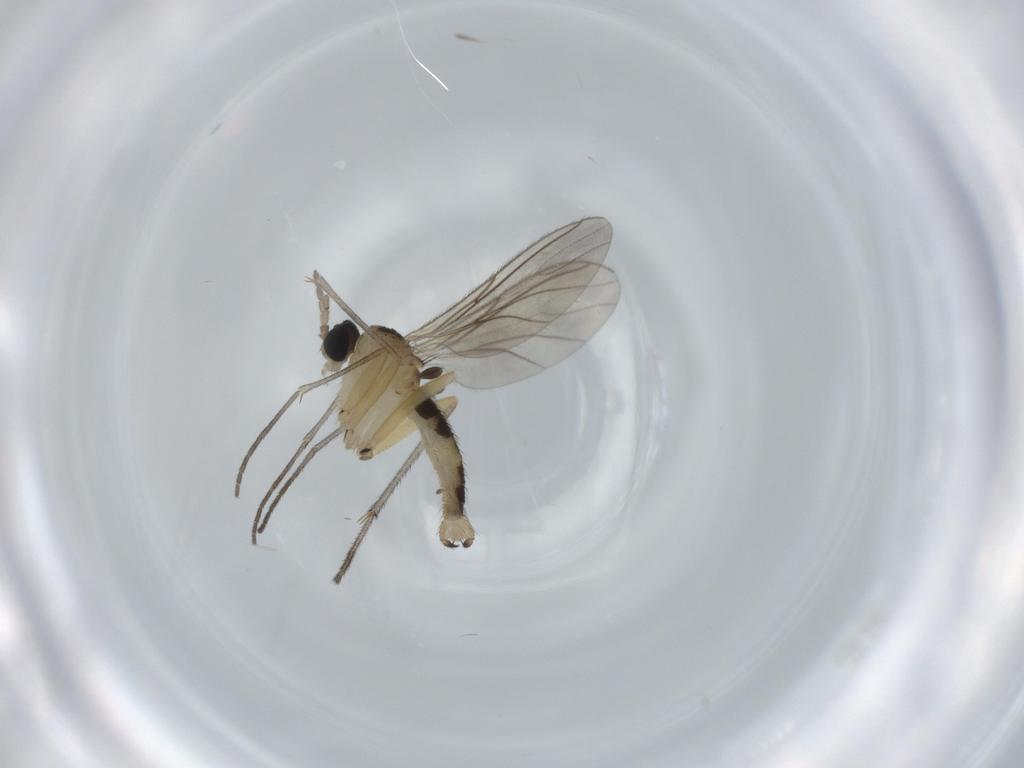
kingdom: Animalia
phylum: Arthropoda
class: Insecta
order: Diptera
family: Sciaridae
